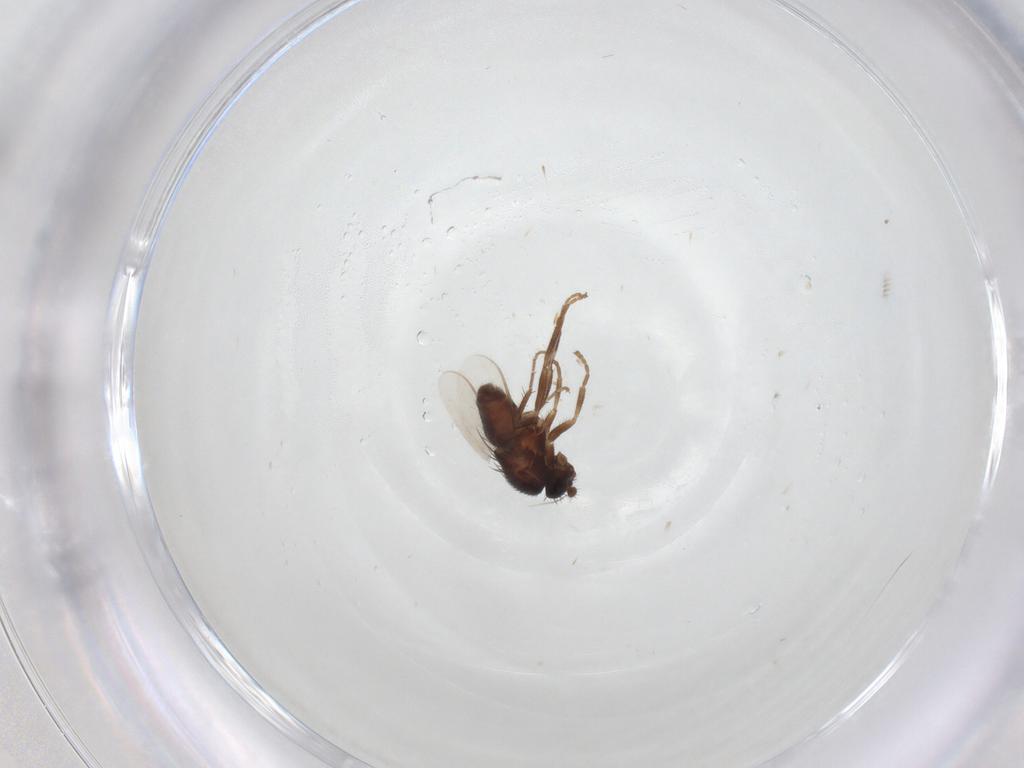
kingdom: Animalia
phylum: Arthropoda
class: Insecta
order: Diptera
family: Sphaeroceridae
